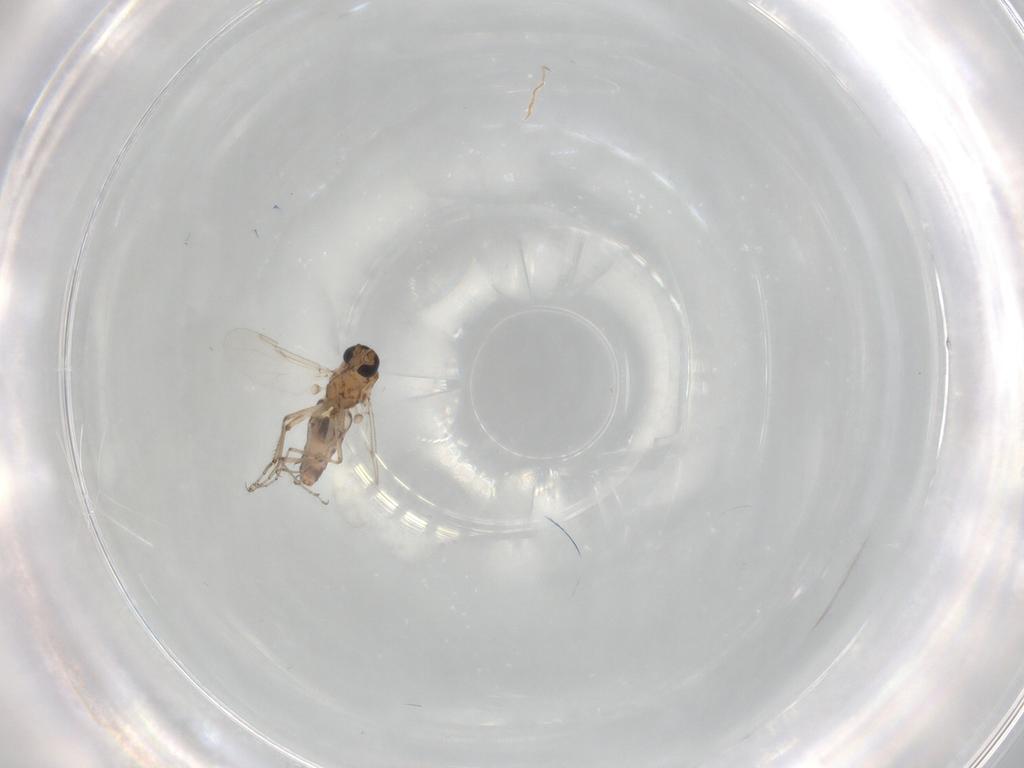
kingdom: Animalia
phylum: Arthropoda
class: Insecta
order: Diptera
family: Ceratopogonidae
